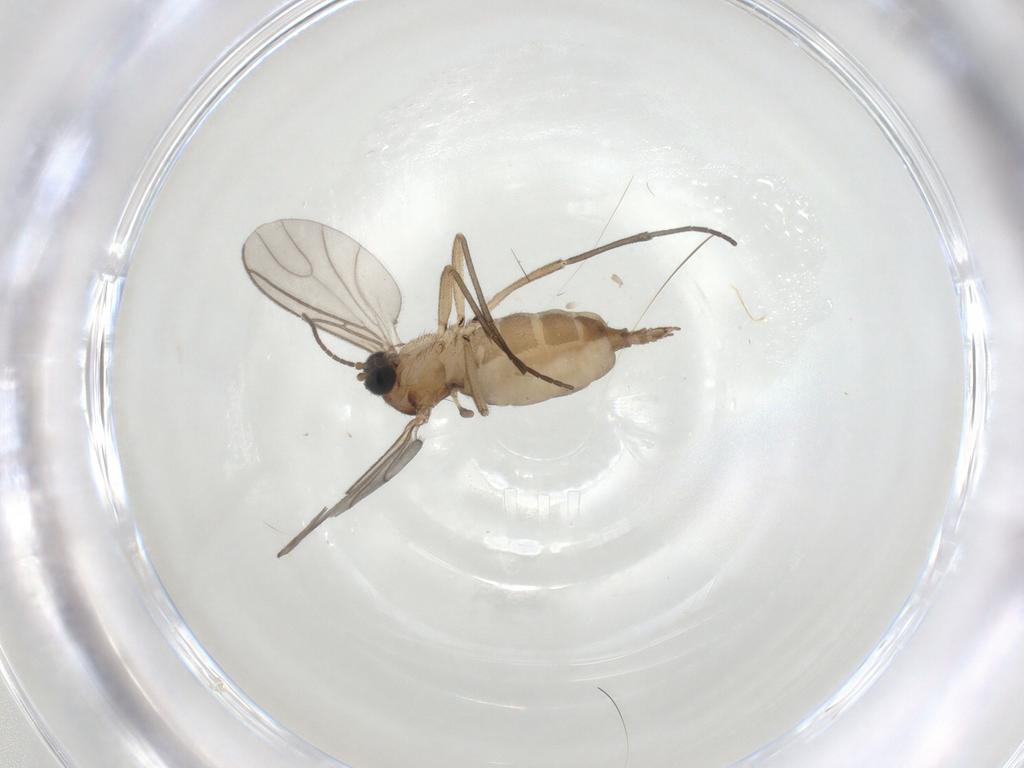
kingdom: Animalia
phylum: Arthropoda
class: Insecta
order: Diptera
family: Sciaridae
